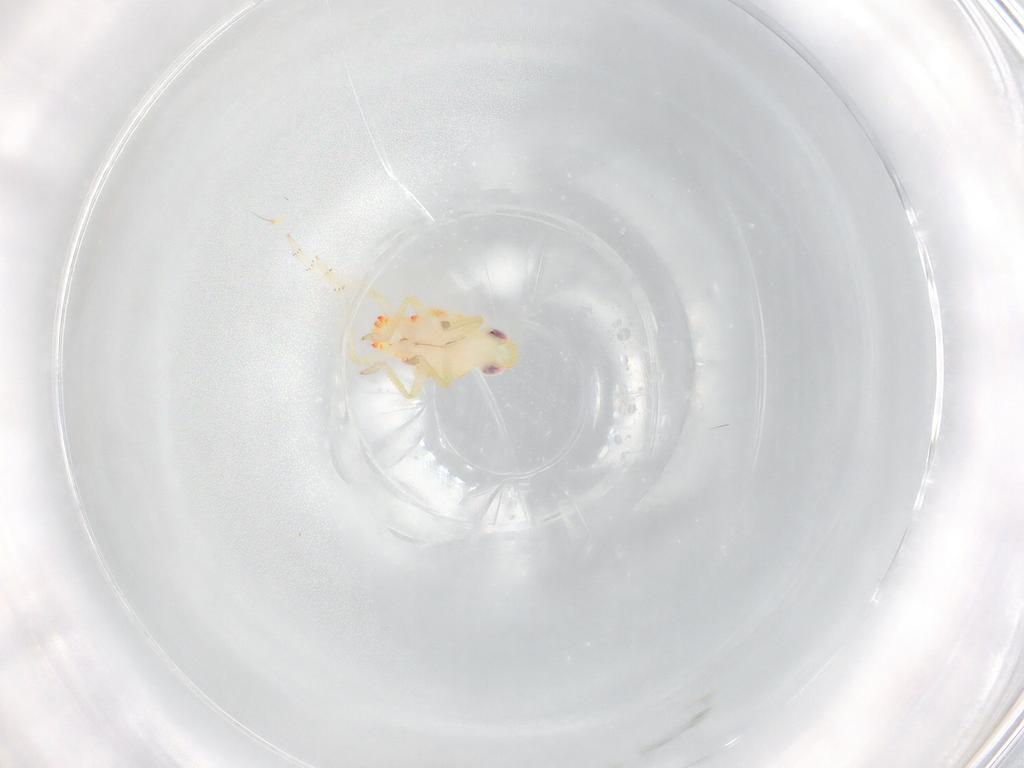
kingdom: Animalia
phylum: Arthropoda
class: Insecta
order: Hemiptera
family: Tropiduchidae
